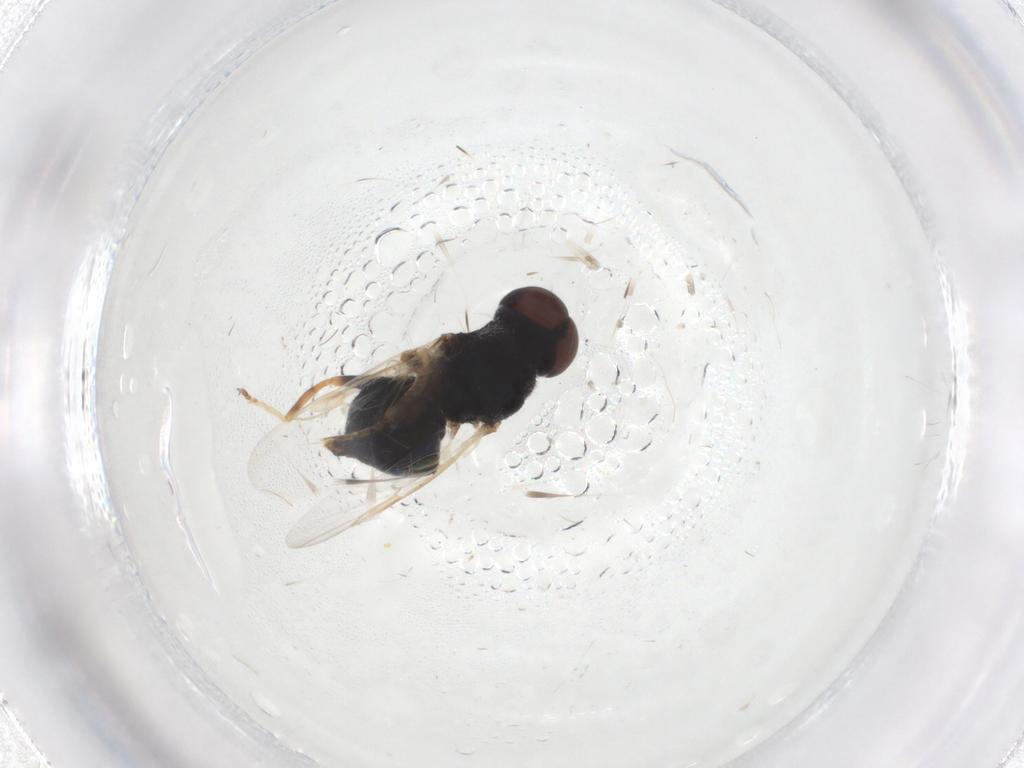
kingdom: Animalia
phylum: Arthropoda
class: Insecta
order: Diptera
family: Stratiomyidae
